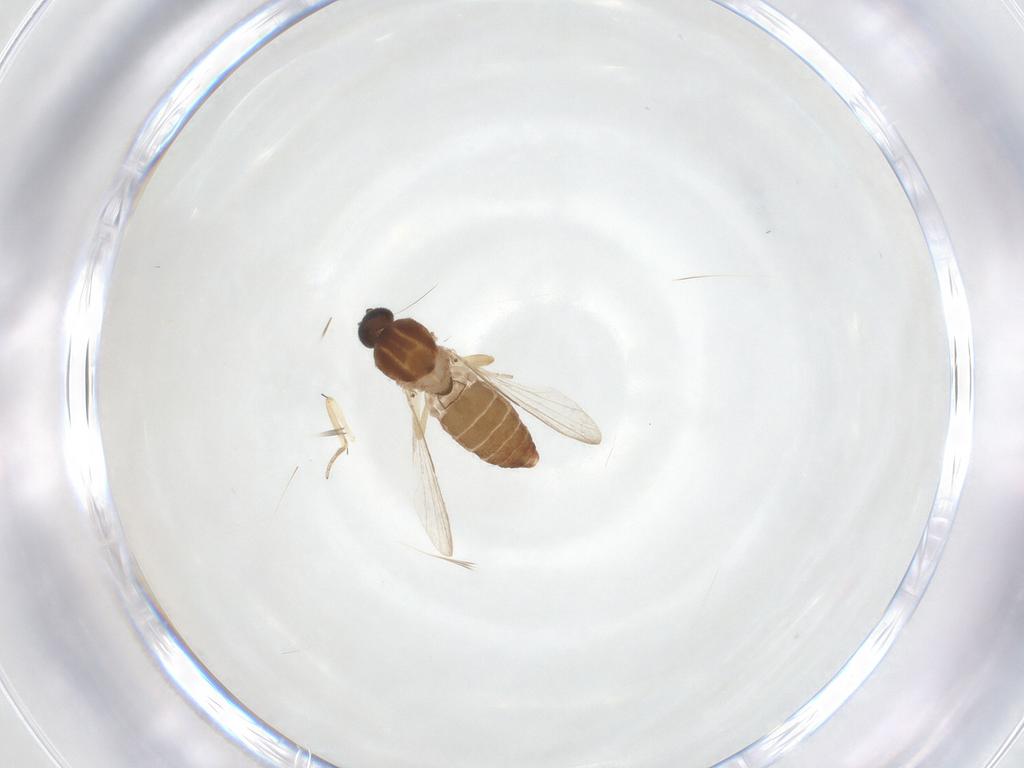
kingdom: Animalia
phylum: Arthropoda
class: Insecta
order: Diptera
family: Ceratopogonidae
